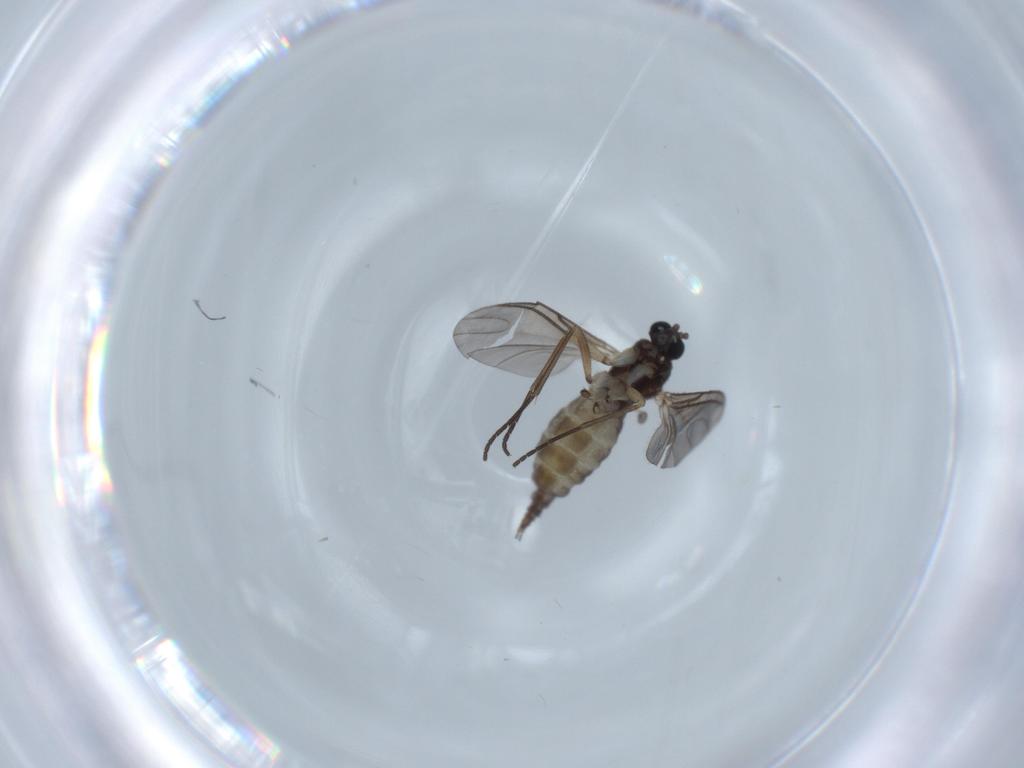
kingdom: Animalia
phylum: Arthropoda
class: Insecta
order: Diptera
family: Sciaridae
